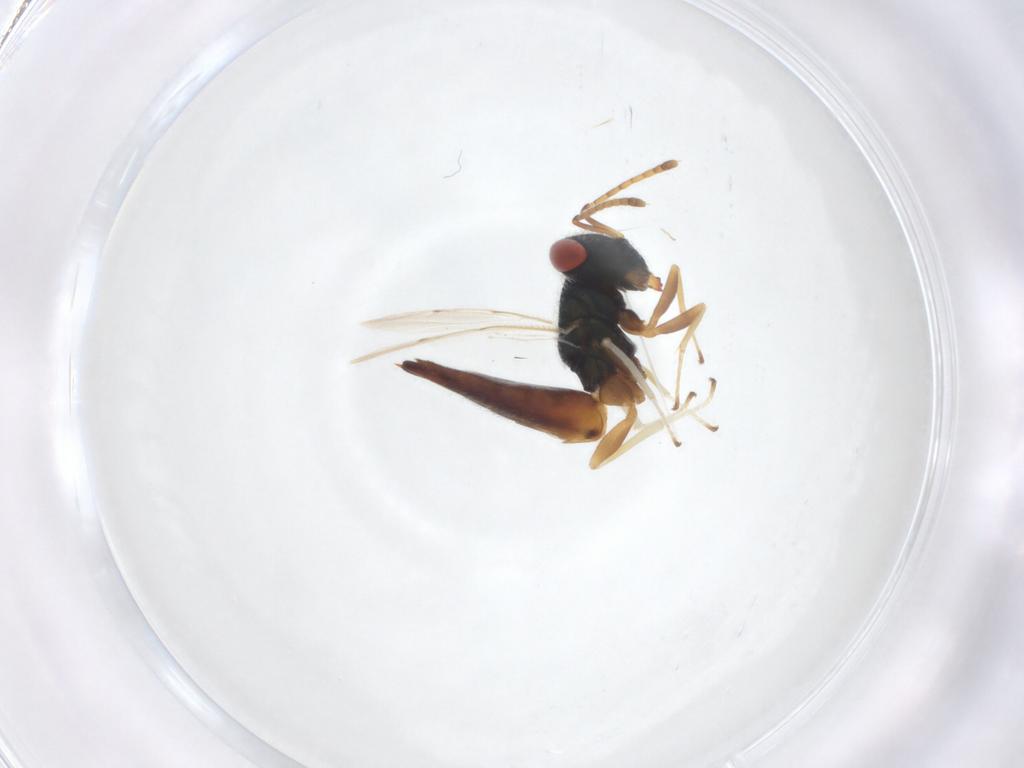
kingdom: Animalia
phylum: Arthropoda
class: Insecta
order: Hymenoptera
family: Pteromalidae
